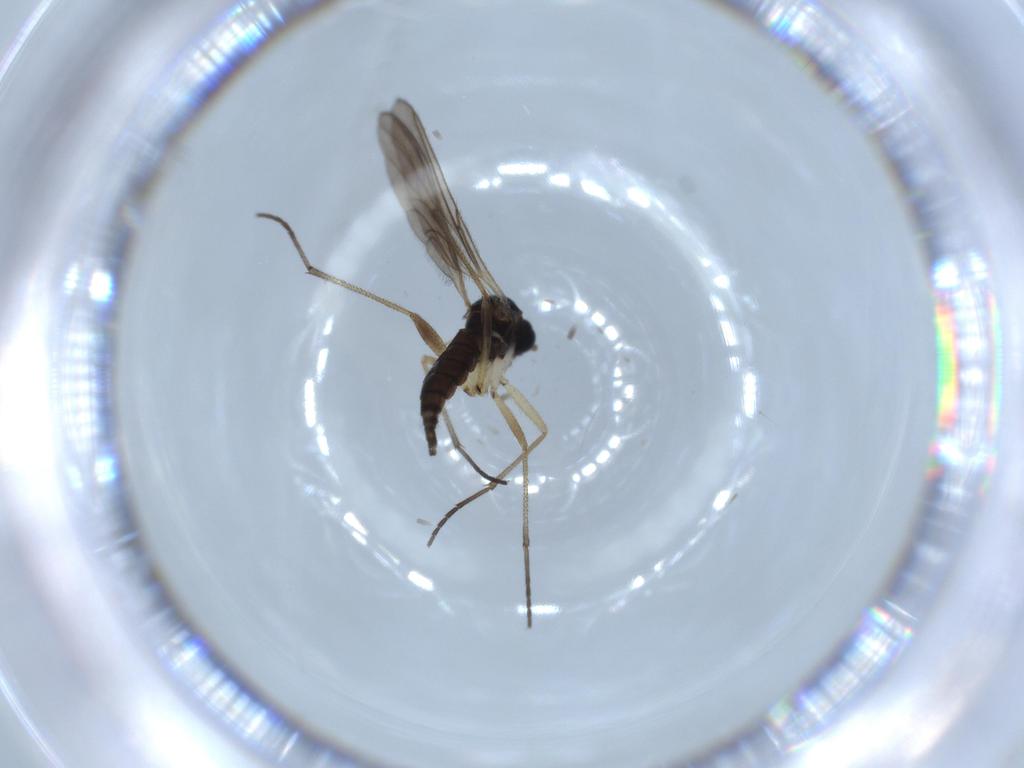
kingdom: Animalia
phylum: Arthropoda
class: Insecta
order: Diptera
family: Sciaridae
